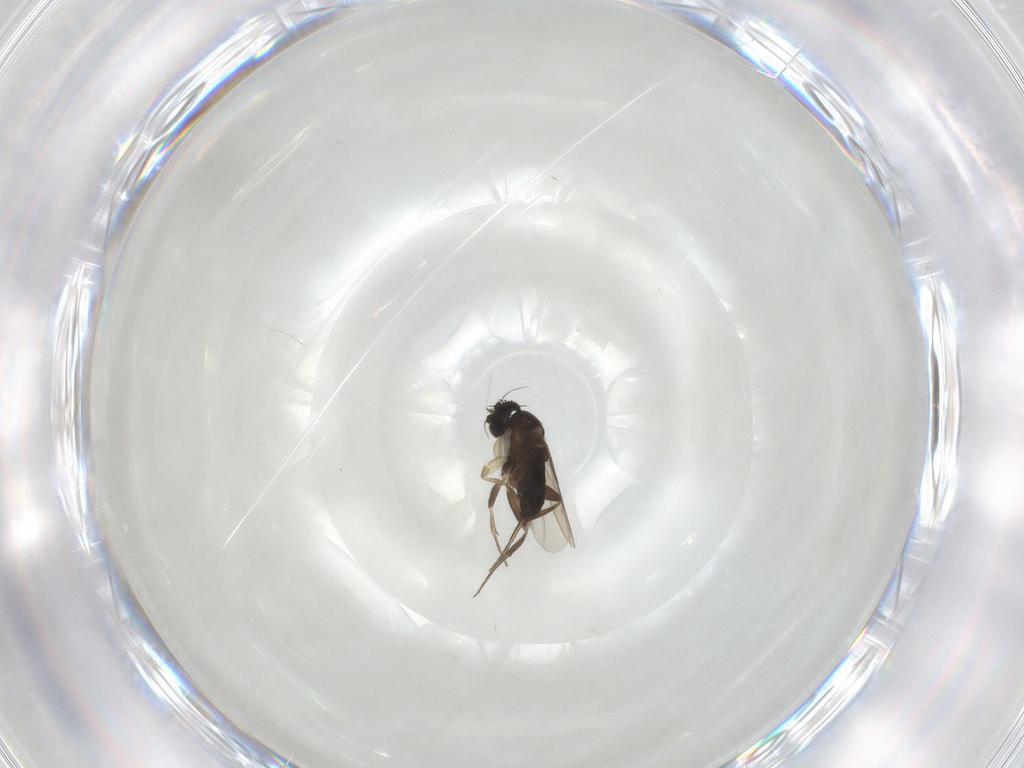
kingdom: Animalia
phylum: Arthropoda
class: Insecta
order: Diptera
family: Phoridae
